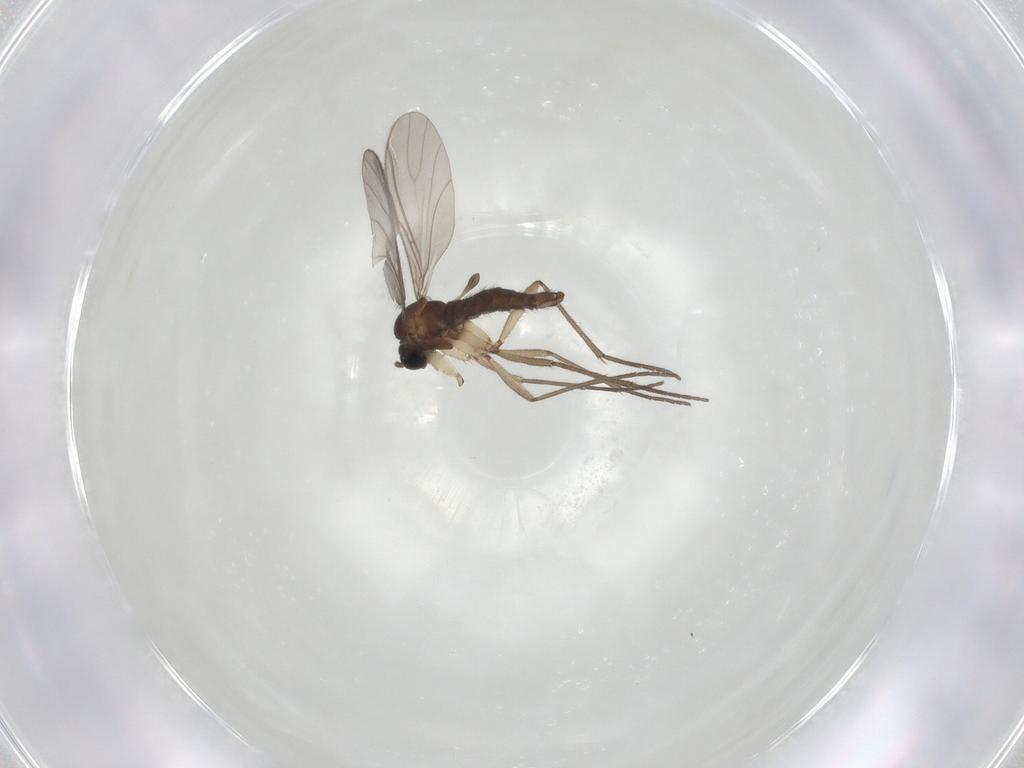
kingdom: Animalia
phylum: Arthropoda
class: Insecta
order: Diptera
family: Sciaridae
